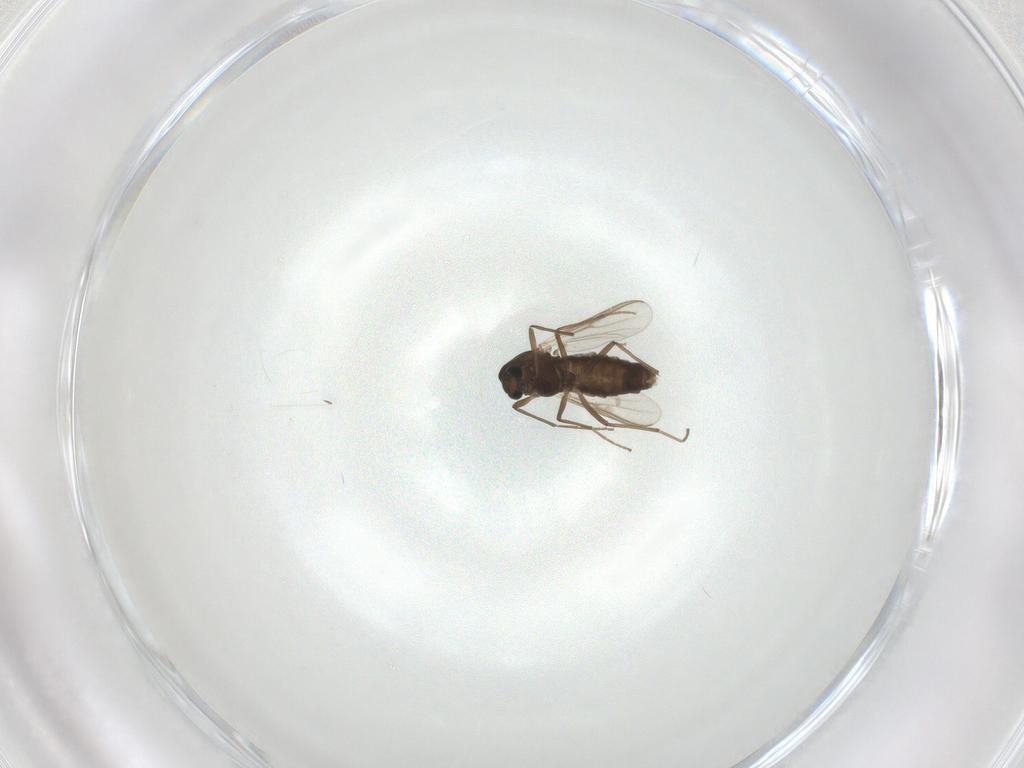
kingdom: Animalia
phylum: Arthropoda
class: Insecta
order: Diptera
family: Chironomidae
